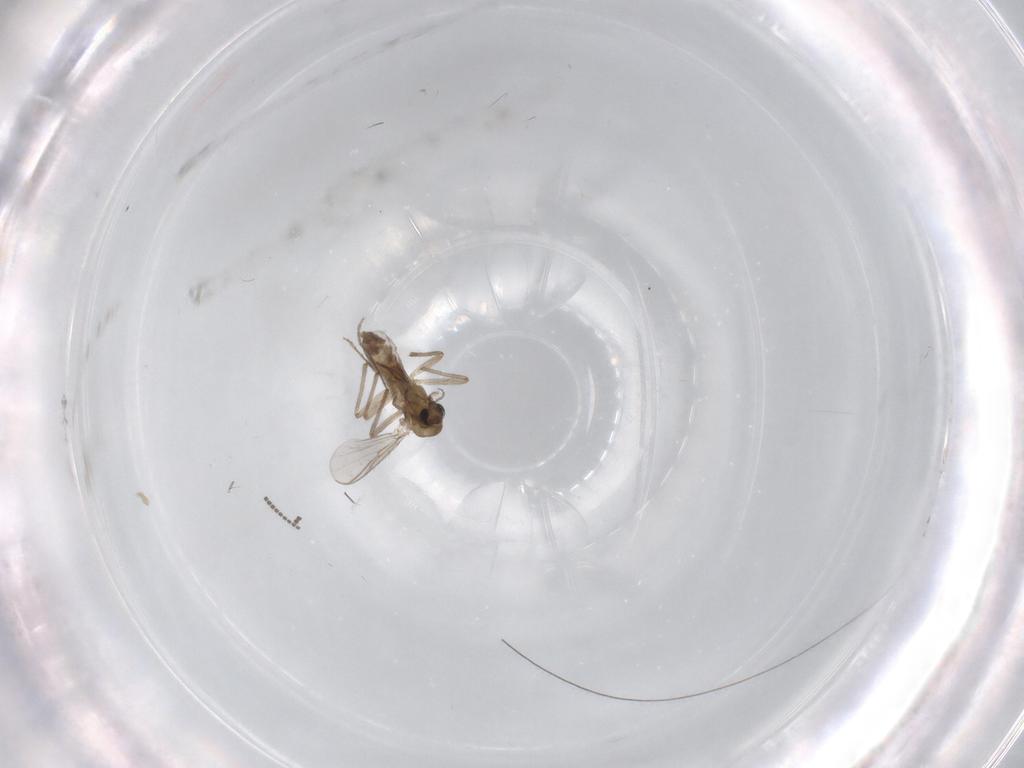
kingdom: Animalia
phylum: Arthropoda
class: Insecta
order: Diptera
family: Chironomidae
